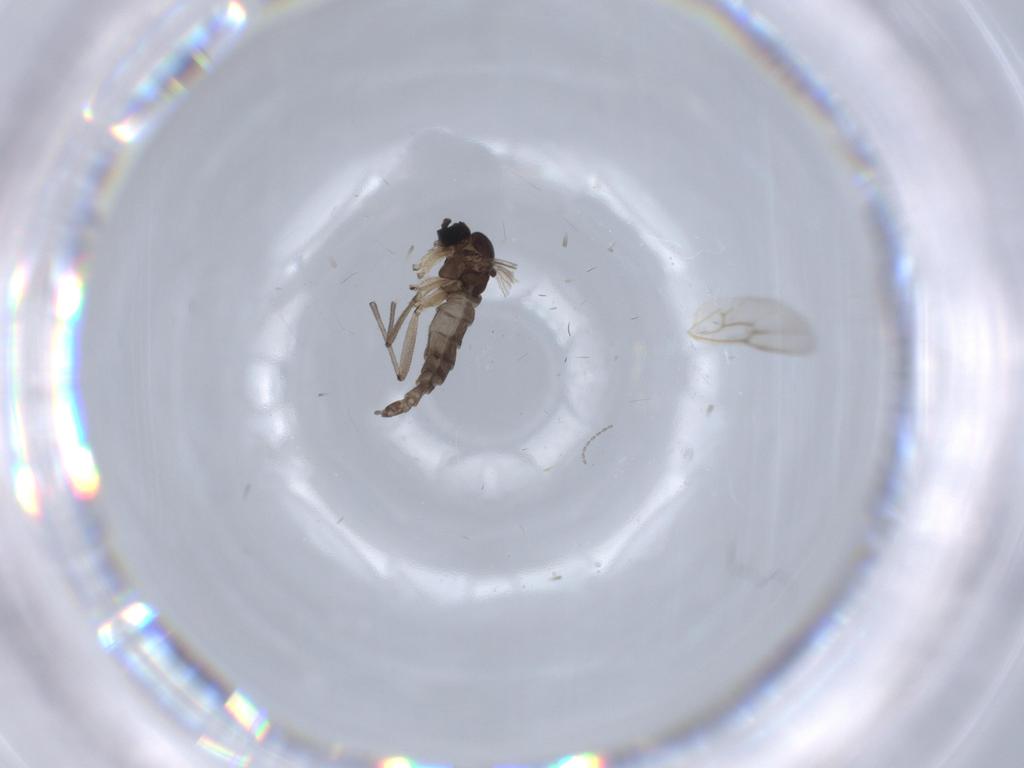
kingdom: Animalia
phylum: Arthropoda
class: Insecta
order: Diptera
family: Sciaridae
